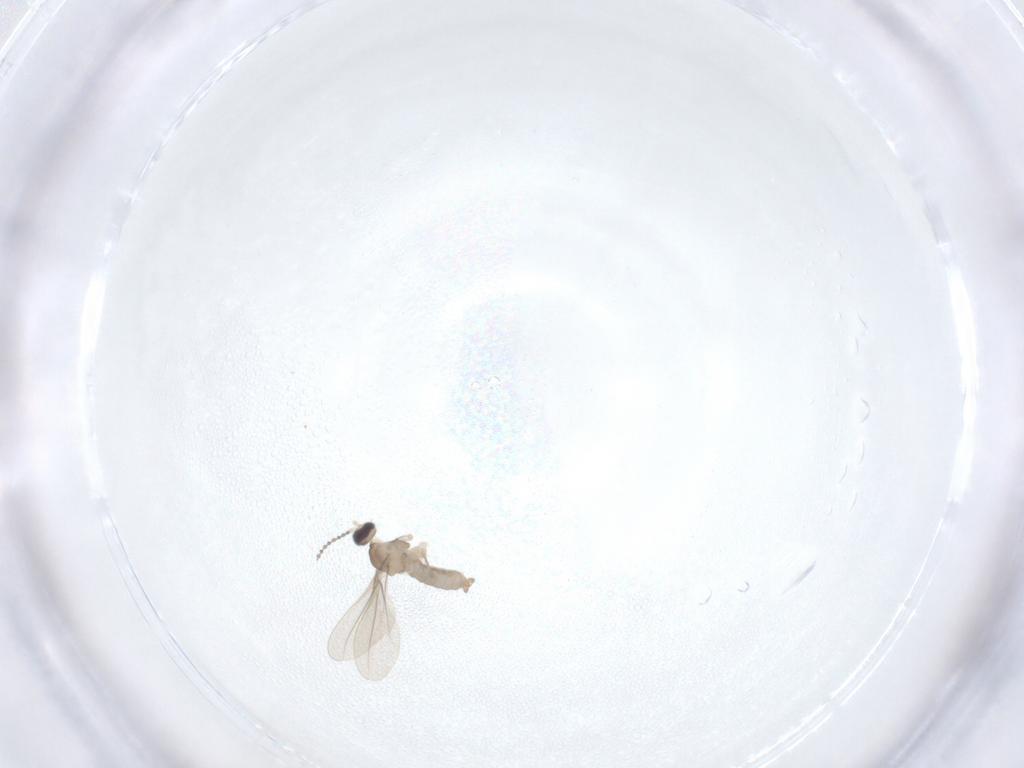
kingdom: Animalia
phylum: Arthropoda
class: Insecta
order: Diptera
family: Cecidomyiidae
